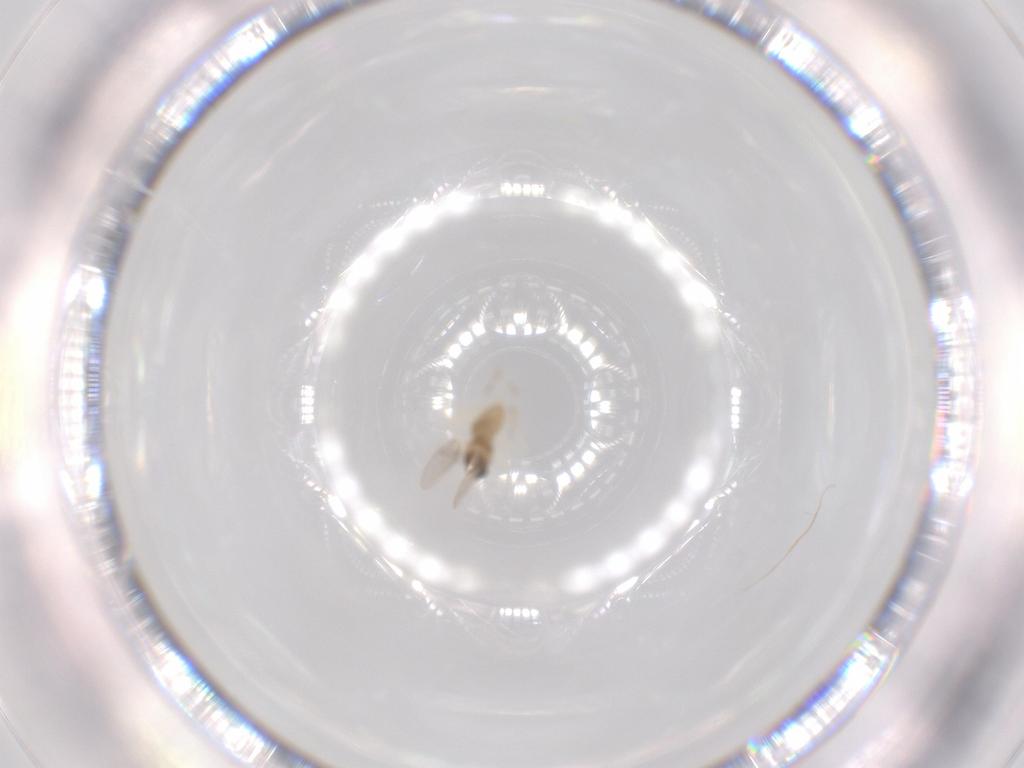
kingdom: Animalia
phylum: Arthropoda
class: Insecta
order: Diptera
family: Cecidomyiidae
